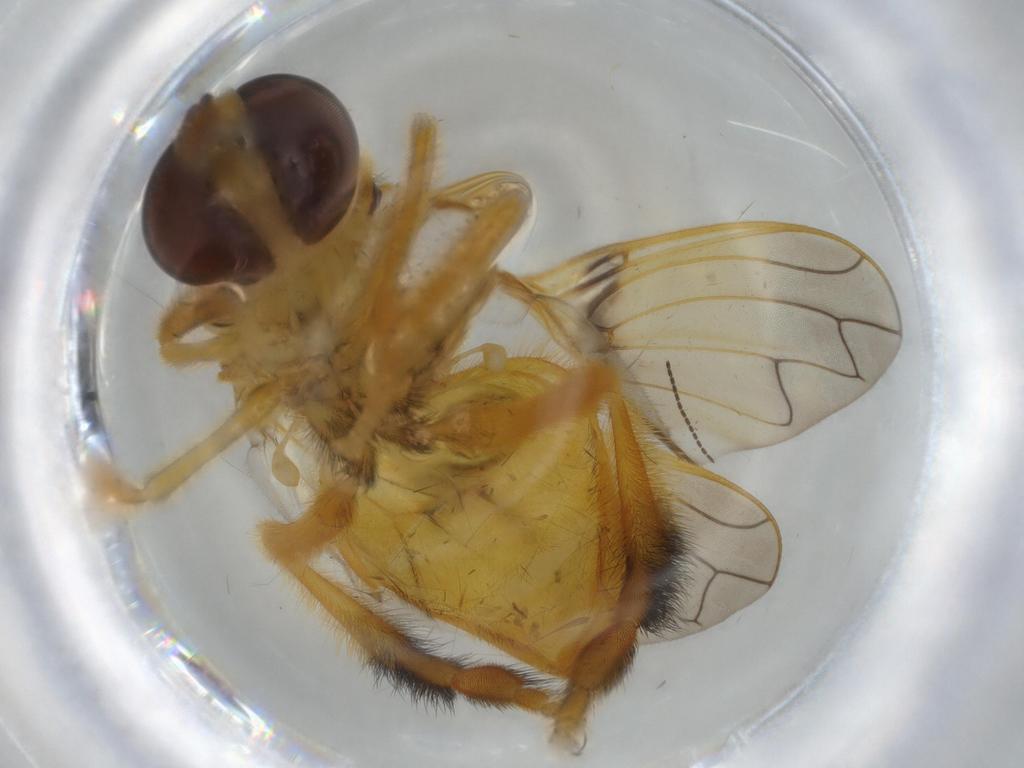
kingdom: Animalia
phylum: Arthropoda
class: Insecta
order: Diptera
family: Syrphidae
